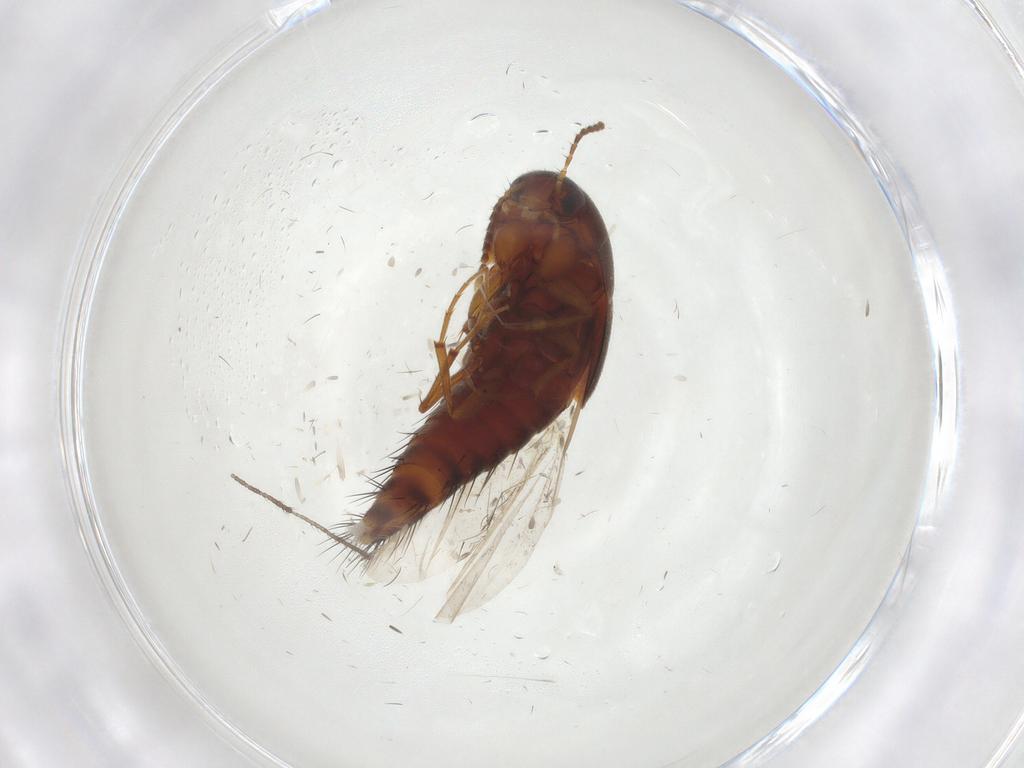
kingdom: Animalia
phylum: Arthropoda
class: Insecta
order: Coleoptera
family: Staphylinidae
